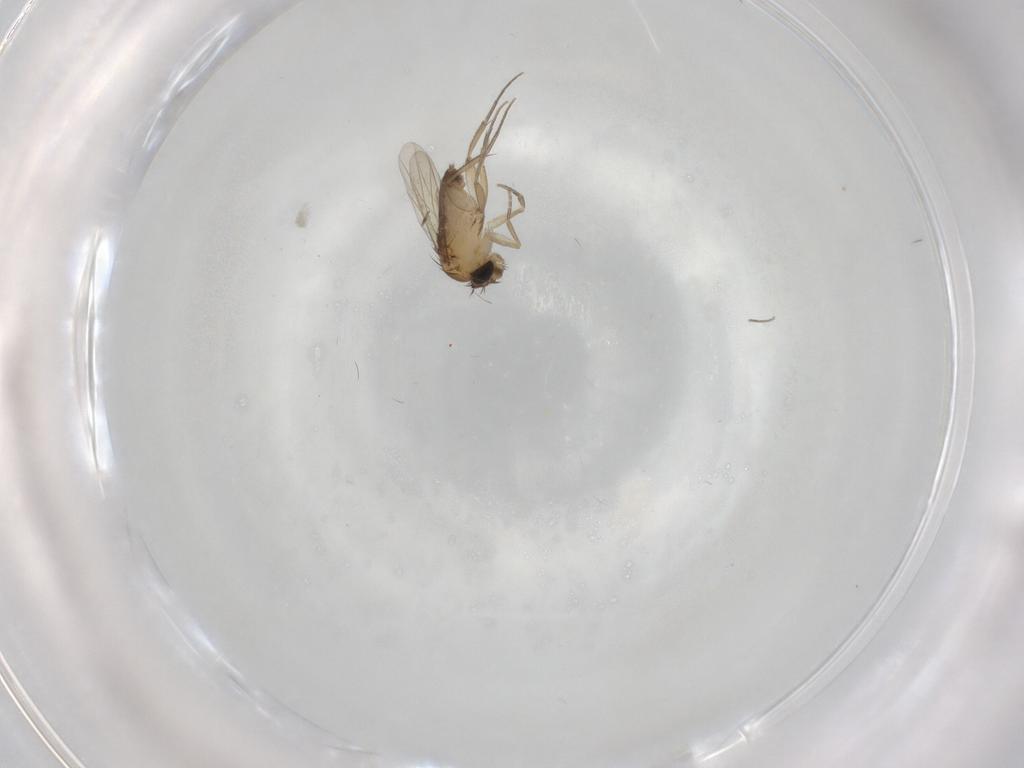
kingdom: Animalia
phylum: Arthropoda
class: Insecta
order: Diptera
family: Phoridae
